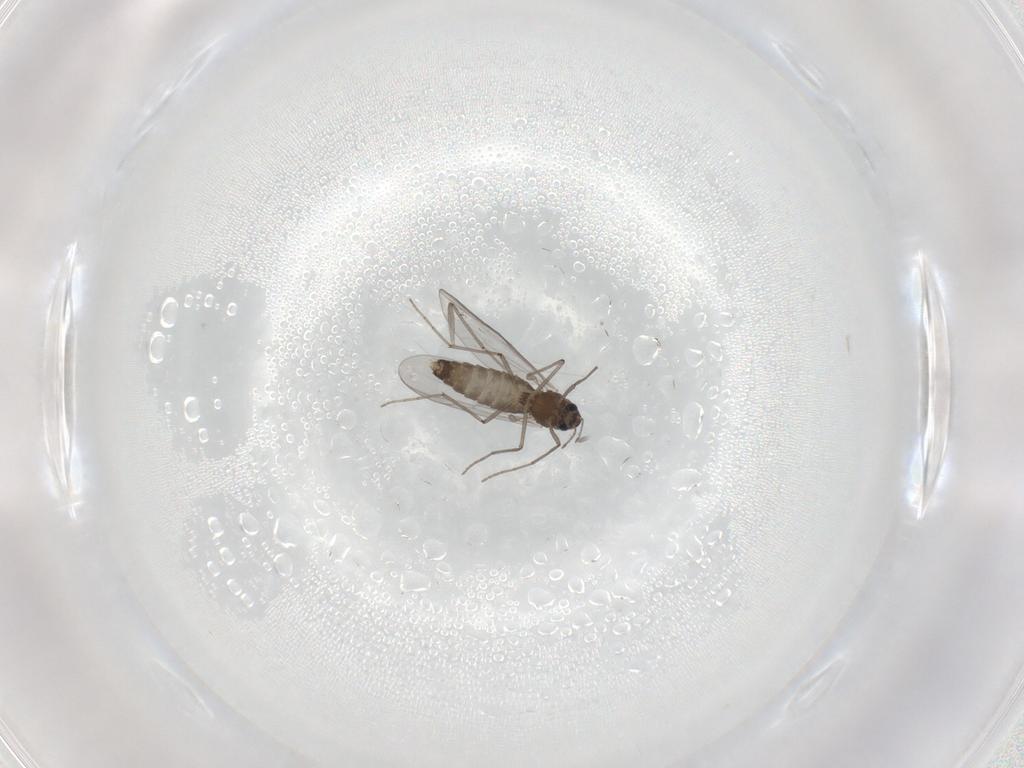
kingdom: Animalia
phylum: Arthropoda
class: Insecta
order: Diptera
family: Chironomidae
